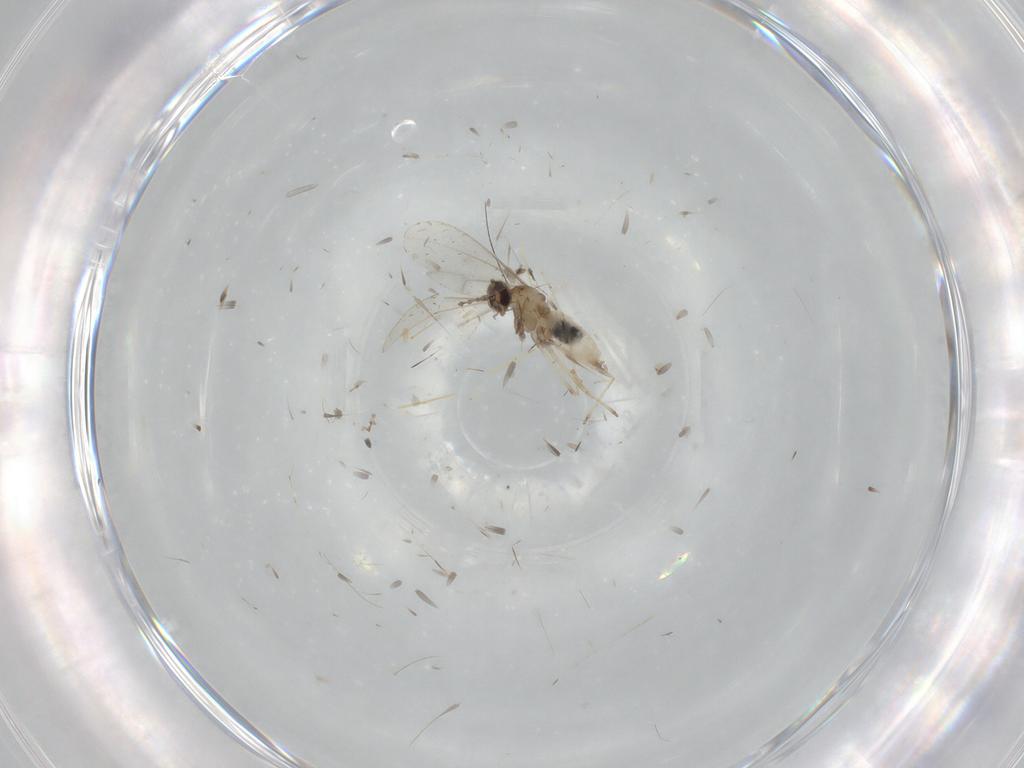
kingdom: Animalia
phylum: Arthropoda
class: Insecta
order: Diptera
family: Cecidomyiidae
